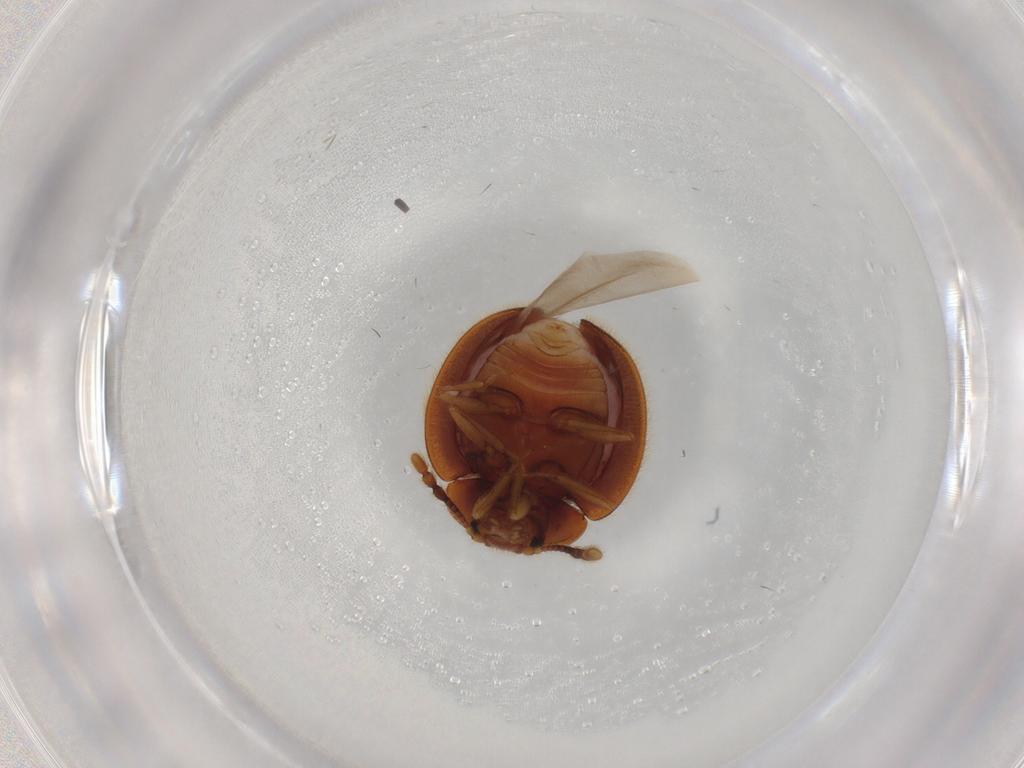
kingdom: Animalia
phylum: Arthropoda
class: Insecta
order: Coleoptera
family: Anamorphidae
